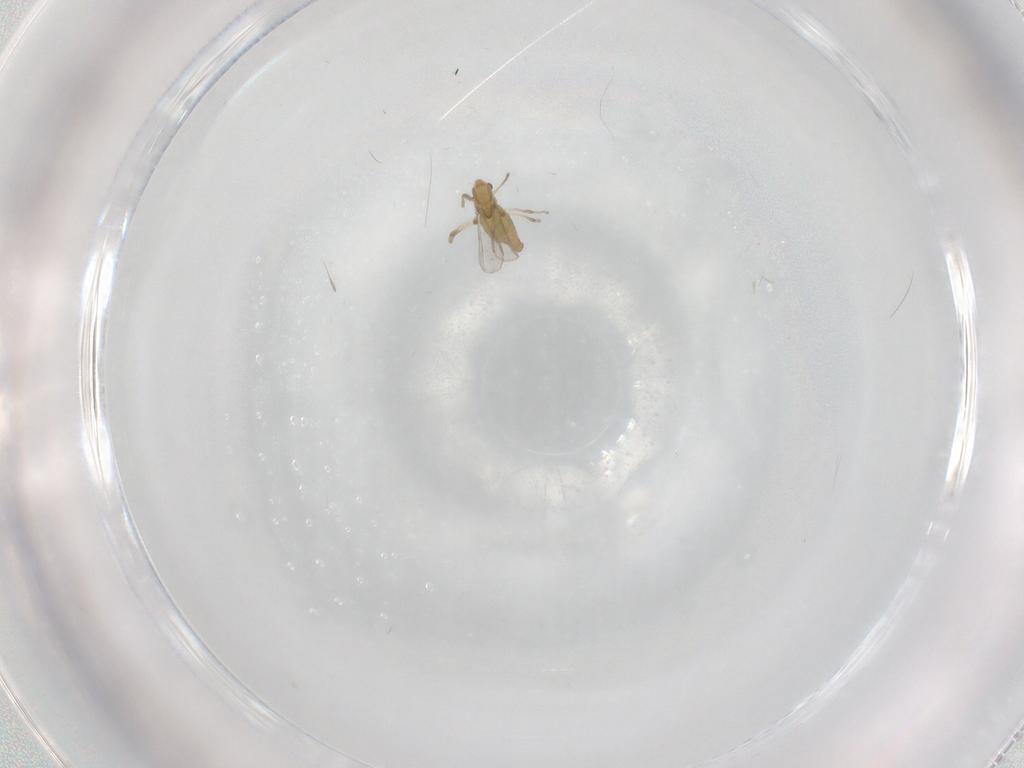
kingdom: Animalia
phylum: Arthropoda
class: Insecta
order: Diptera
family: Chironomidae
